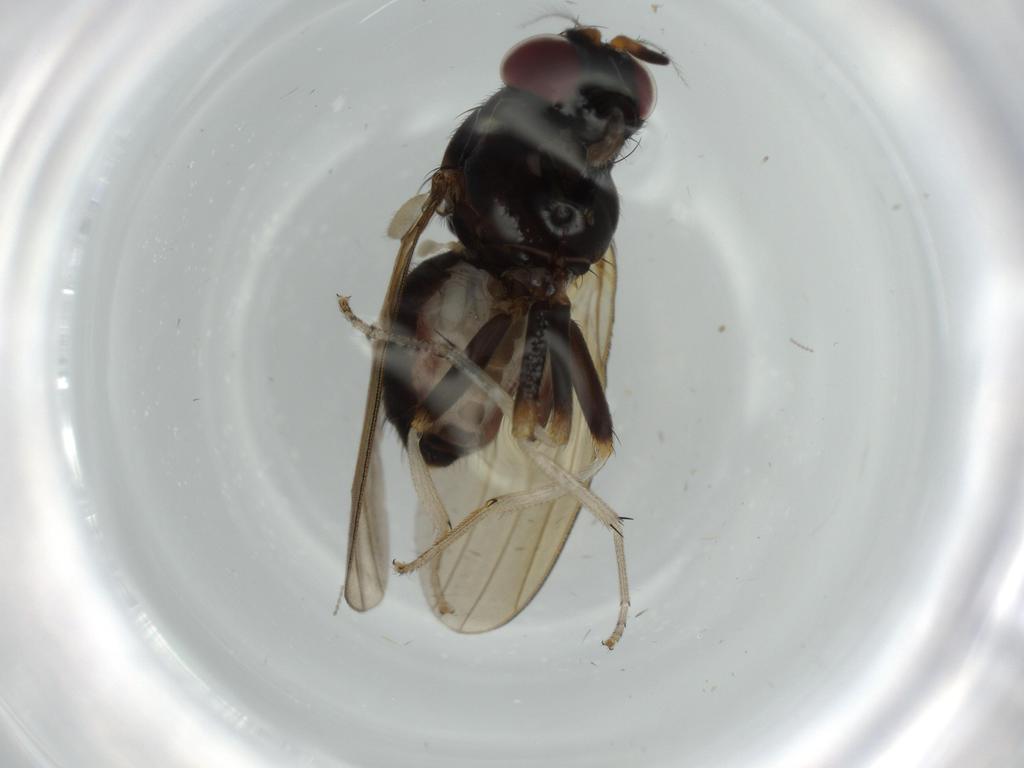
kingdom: Animalia
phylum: Arthropoda
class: Insecta
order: Diptera
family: Lauxaniidae
